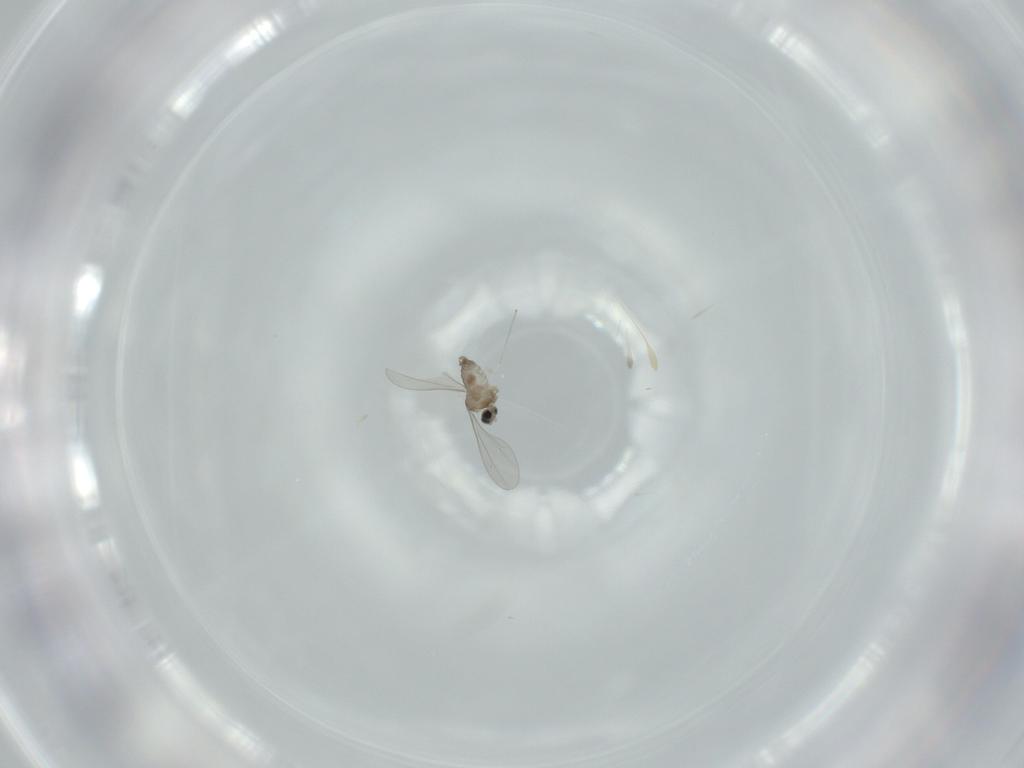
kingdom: Animalia
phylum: Arthropoda
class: Insecta
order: Diptera
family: Cecidomyiidae
